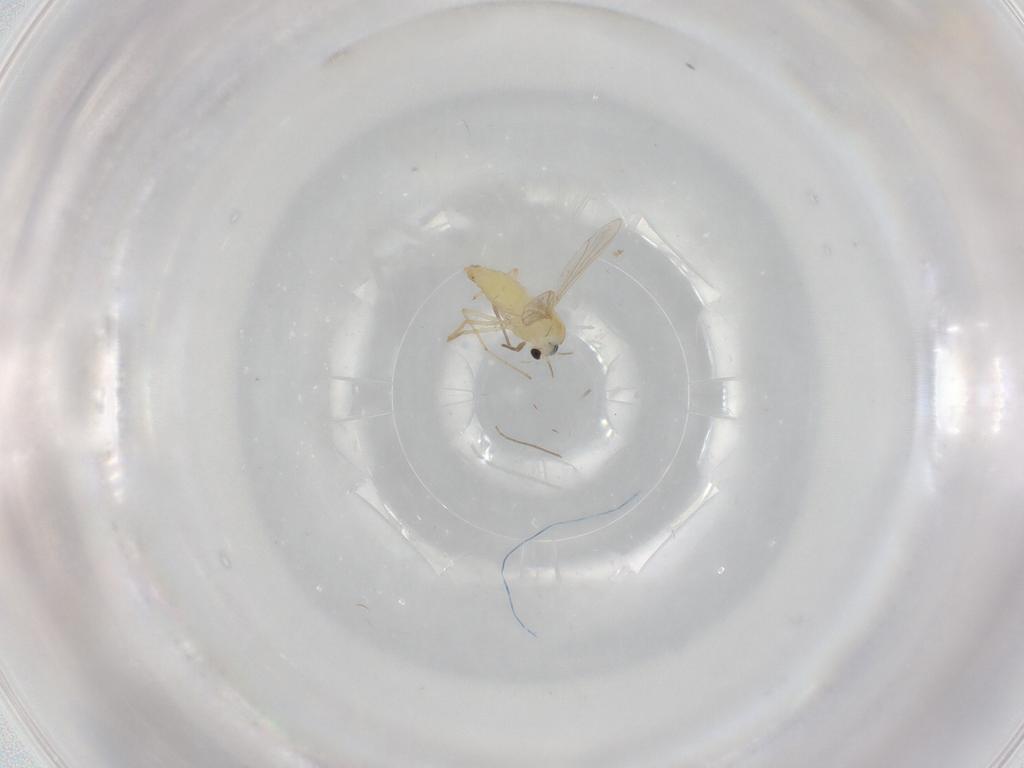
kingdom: Animalia
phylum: Arthropoda
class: Insecta
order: Diptera
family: Chironomidae
